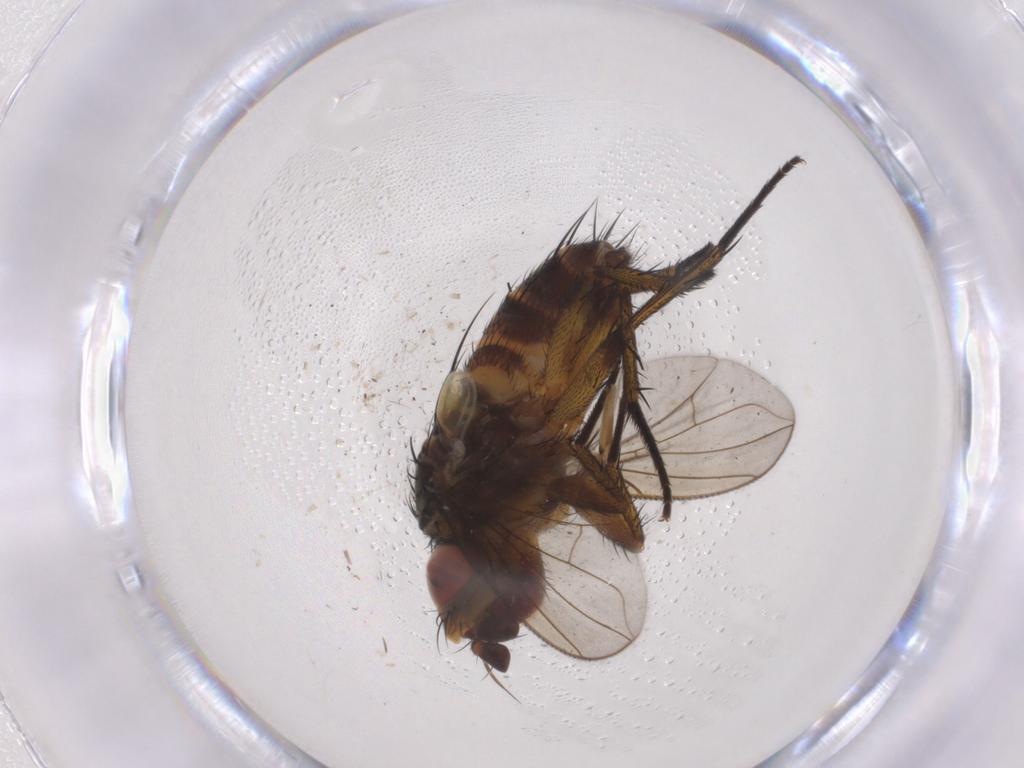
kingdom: Animalia
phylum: Arthropoda
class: Insecta
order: Diptera
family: Tachinidae
